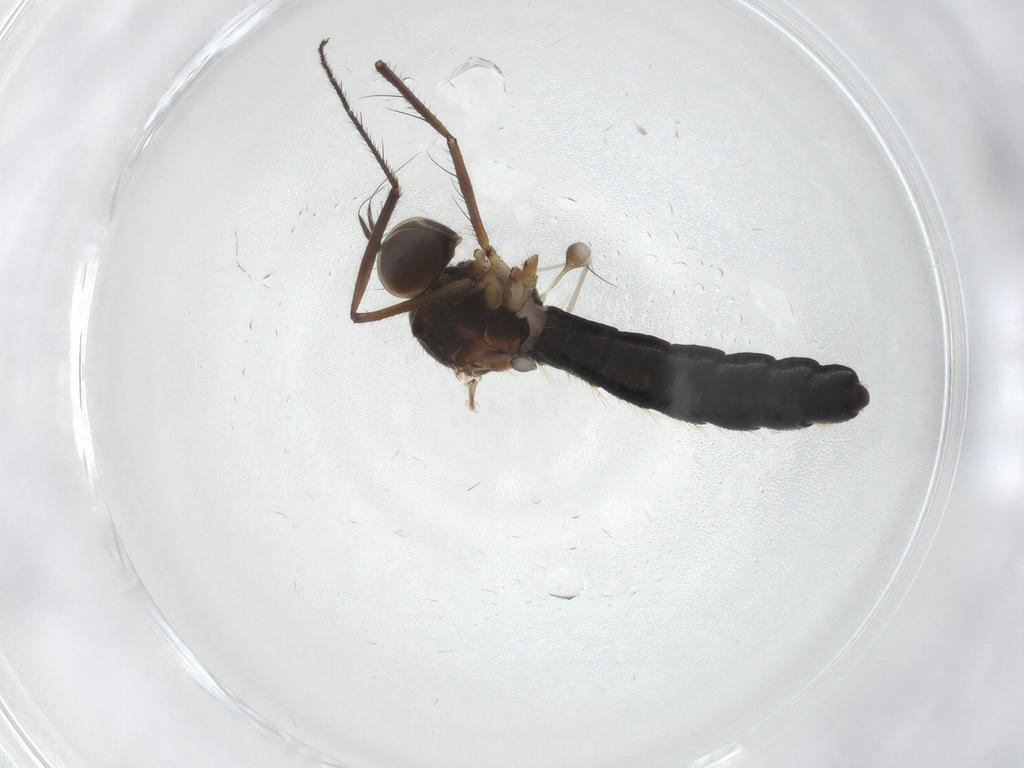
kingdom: Animalia
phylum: Arthropoda
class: Insecta
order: Diptera
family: Hybotidae
